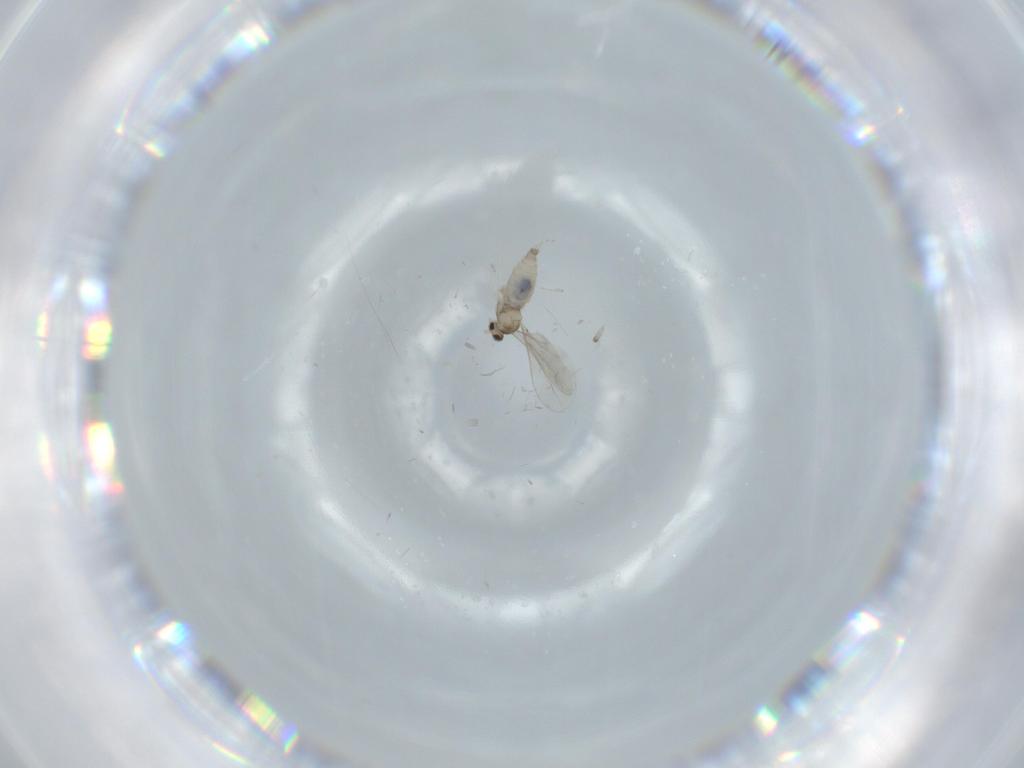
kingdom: Animalia
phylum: Arthropoda
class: Insecta
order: Diptera
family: Cecidomyiidae
